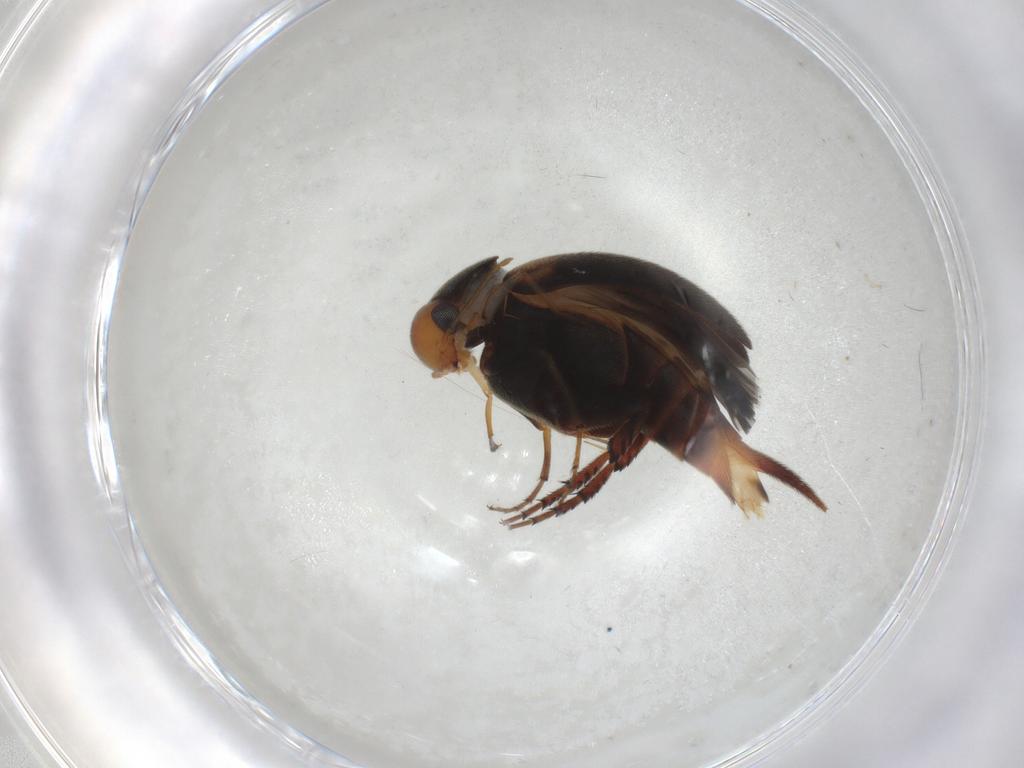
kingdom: Animalia
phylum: Arthropoda
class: Insecta
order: Coleoptera
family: Mordellidae
